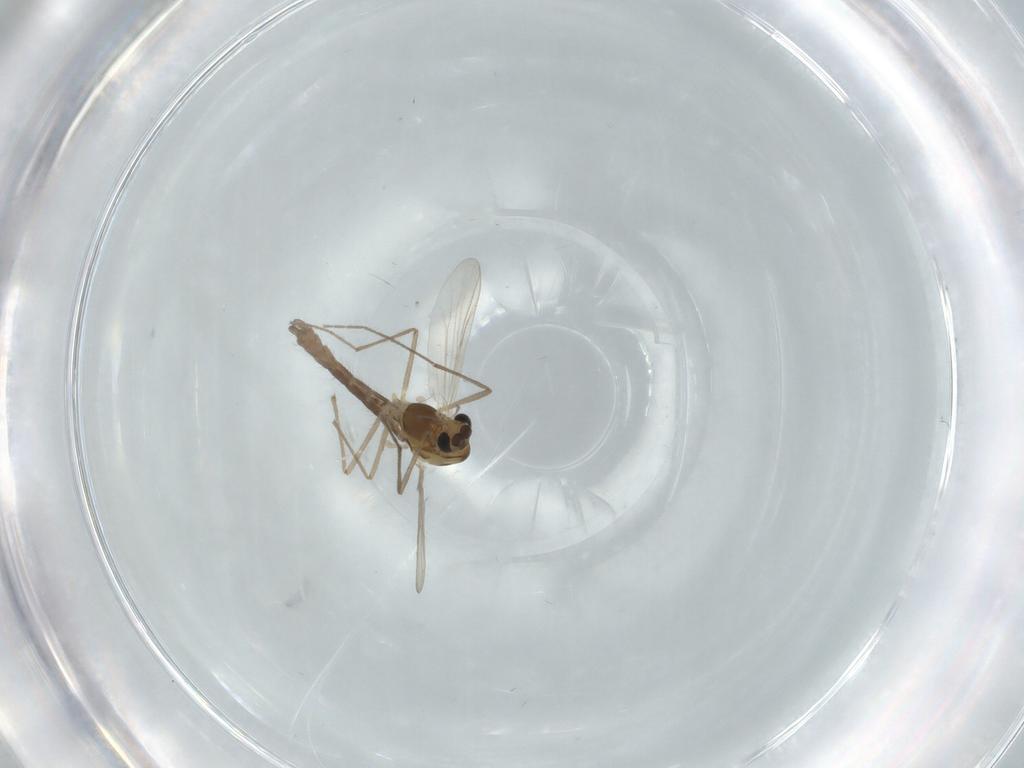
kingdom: Animalia
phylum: Arthropoda
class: Insecta
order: Diptera
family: Chironomidae
